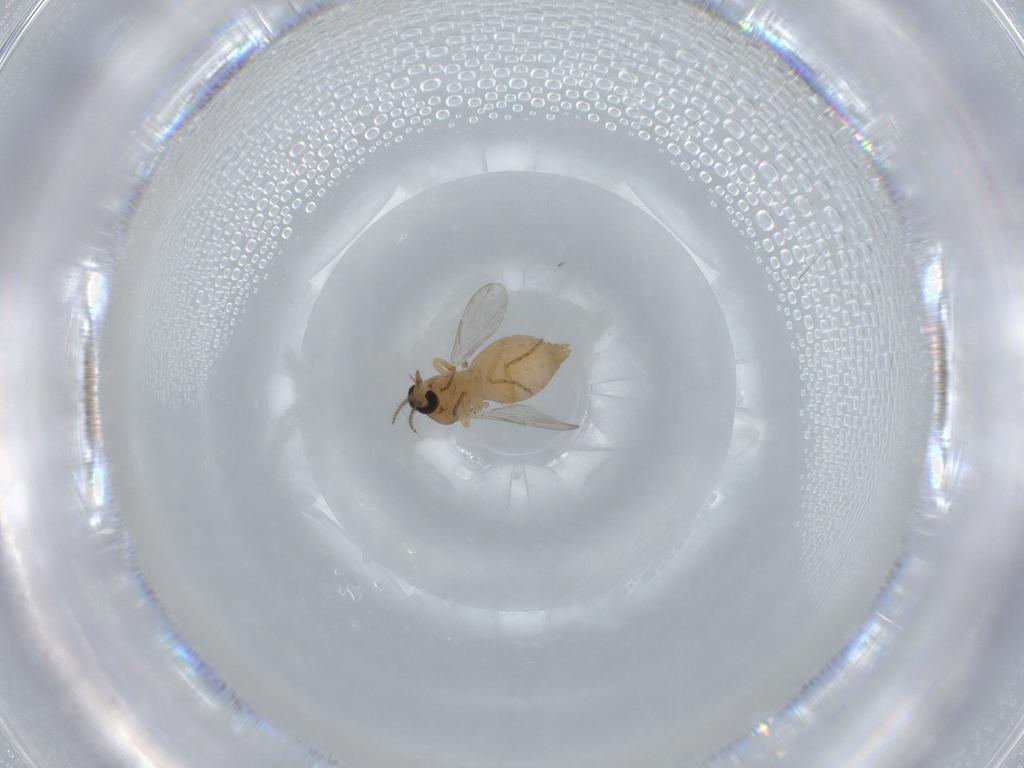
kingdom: Animalia
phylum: Arthropoda
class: Insecta
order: Diptera
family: Ceratopogonidae
